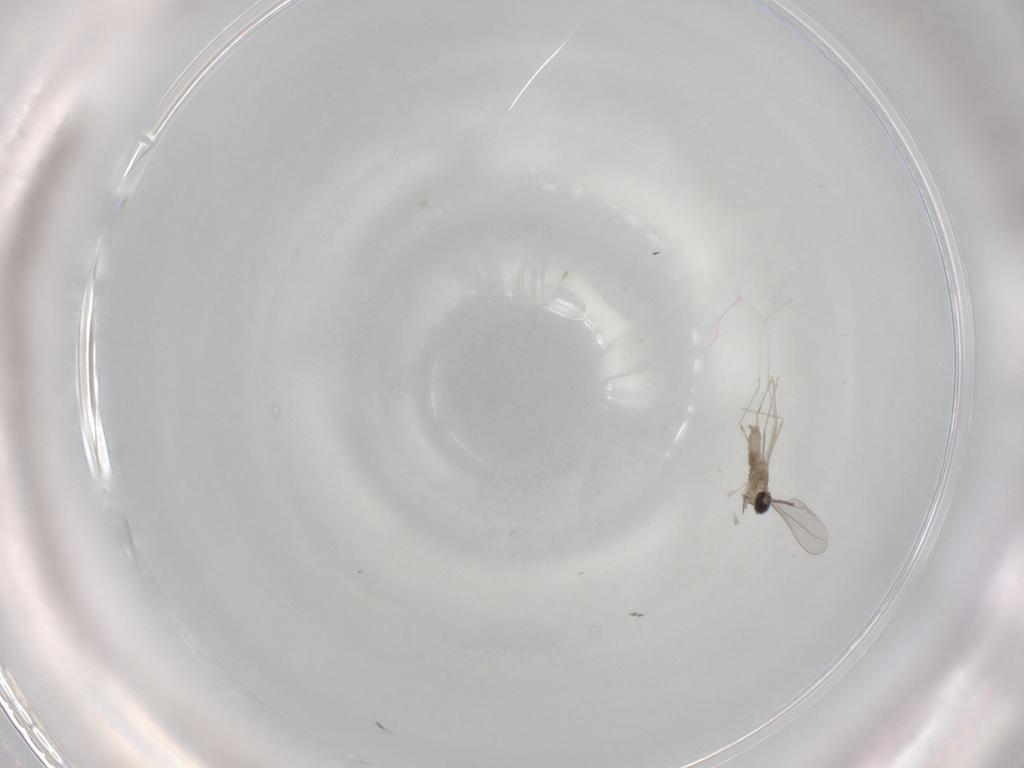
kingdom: Animalia
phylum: Arthropoda
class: Insecta
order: Diptera
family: Cecidomyiidae
